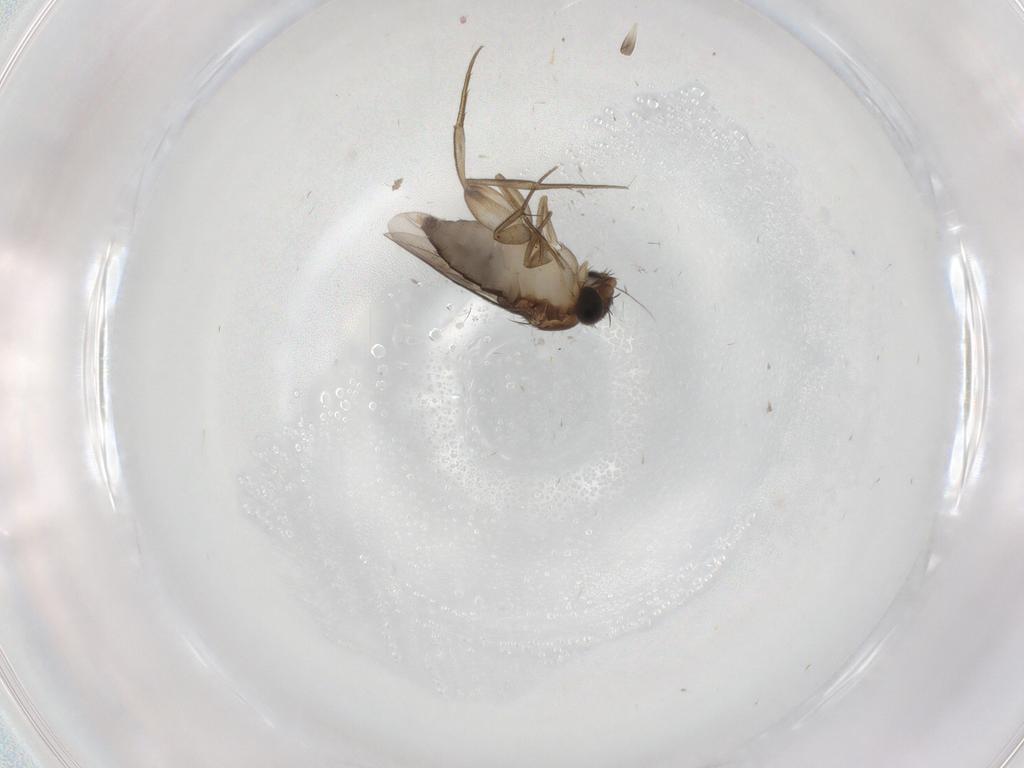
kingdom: Animalia
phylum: Arthropoda
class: Insecta
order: Diptera
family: Phoridae
